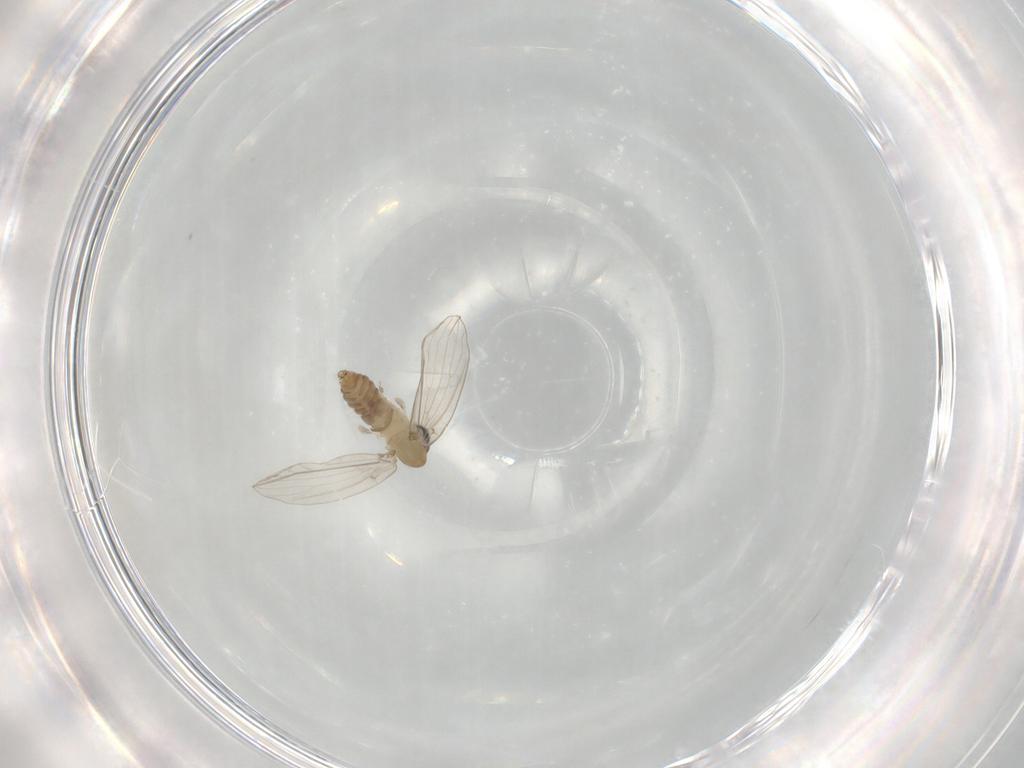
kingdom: Animalia
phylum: Arthropoda
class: Insecta
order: Diptera
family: Psychodidae
